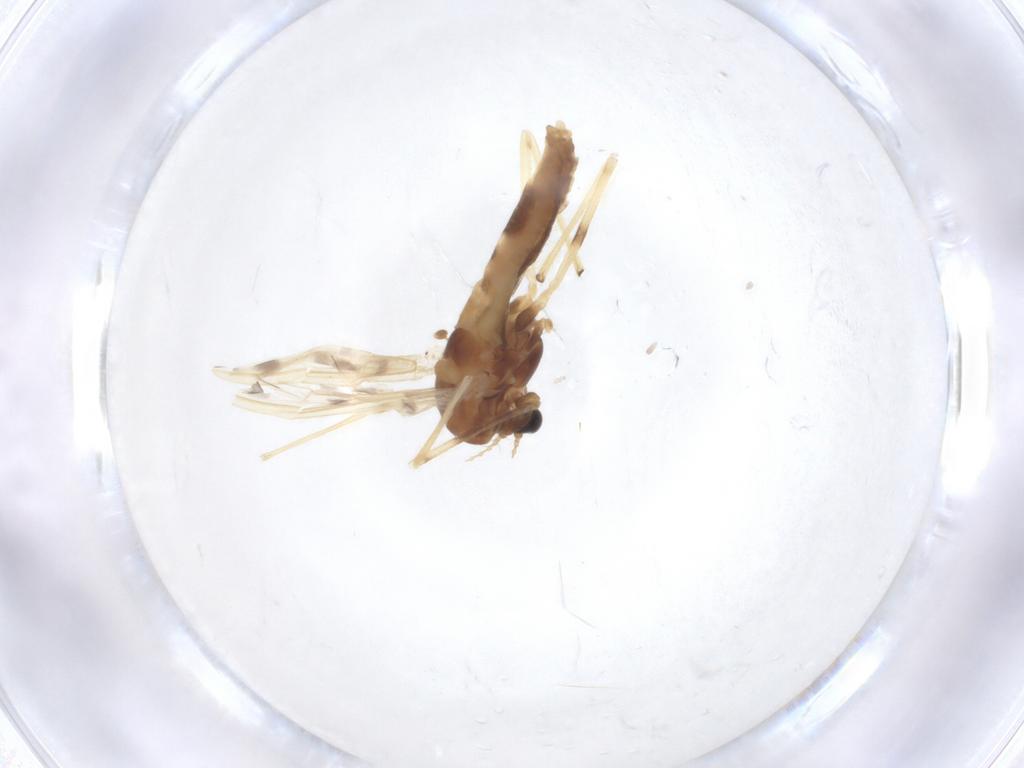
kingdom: Animalia
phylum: Arthropoda
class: Insecta
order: Diptera
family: Chironomidae
